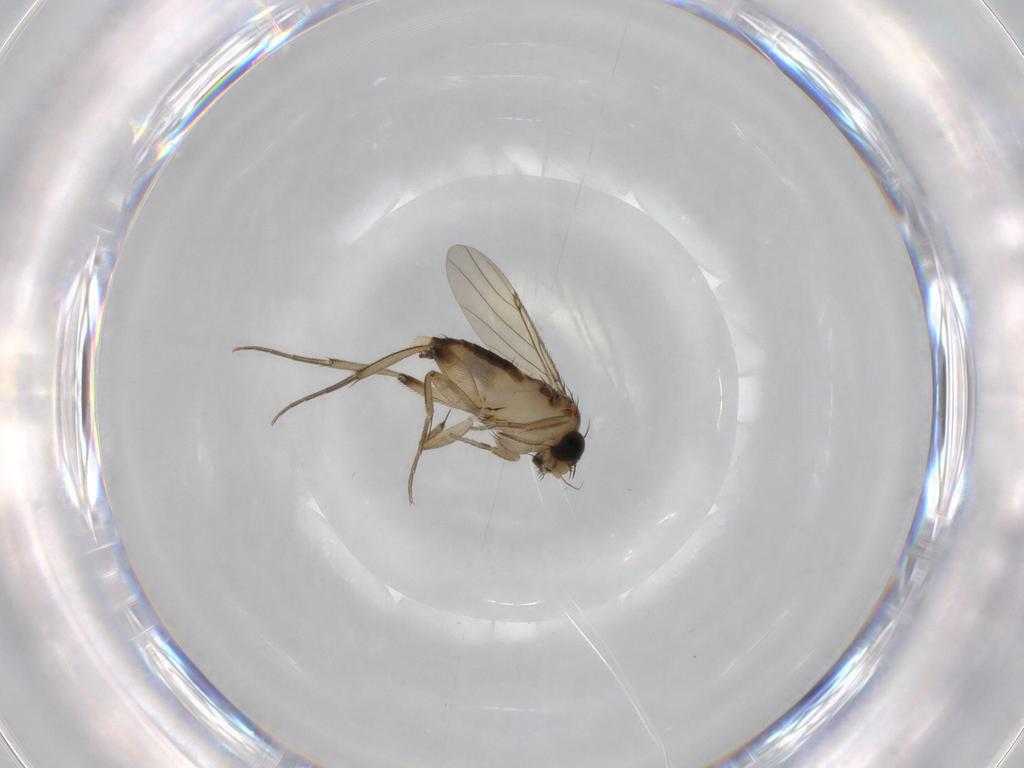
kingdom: Animalia
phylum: Arthropoda
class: Insecta
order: Diptera
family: Phoridae
